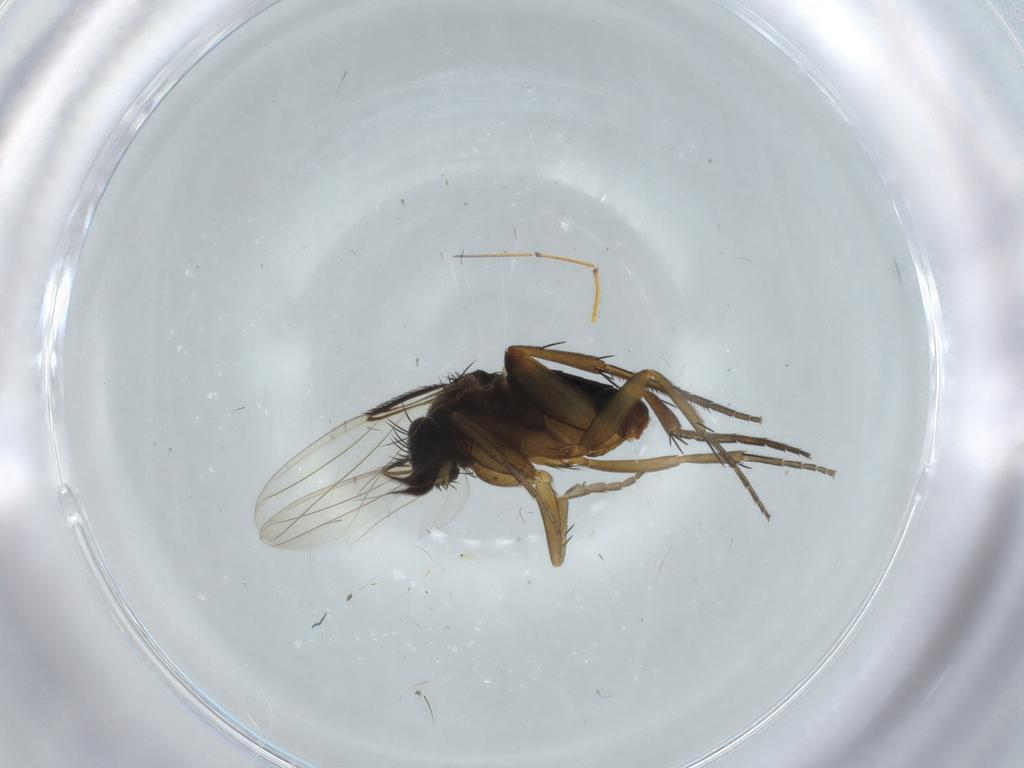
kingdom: Animalia
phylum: Arthropoda
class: Insecta
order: Diptera
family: Phoridae
